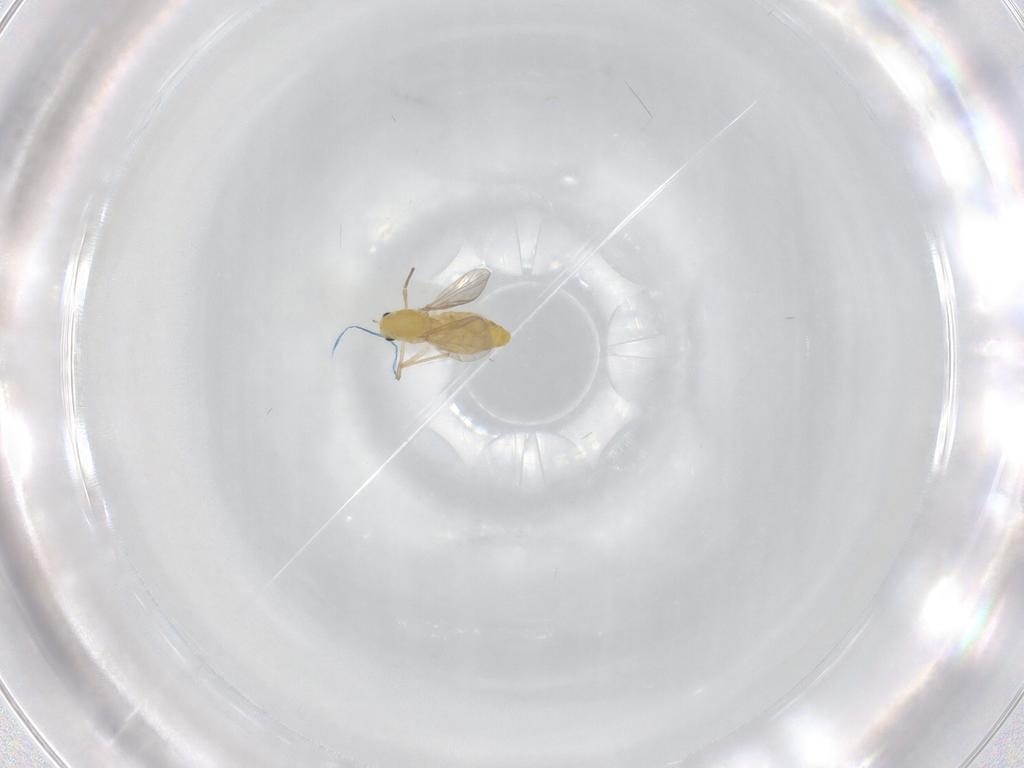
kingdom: Animalia
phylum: Arthropoda
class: Insecta
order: Diptera
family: Chironomidae
